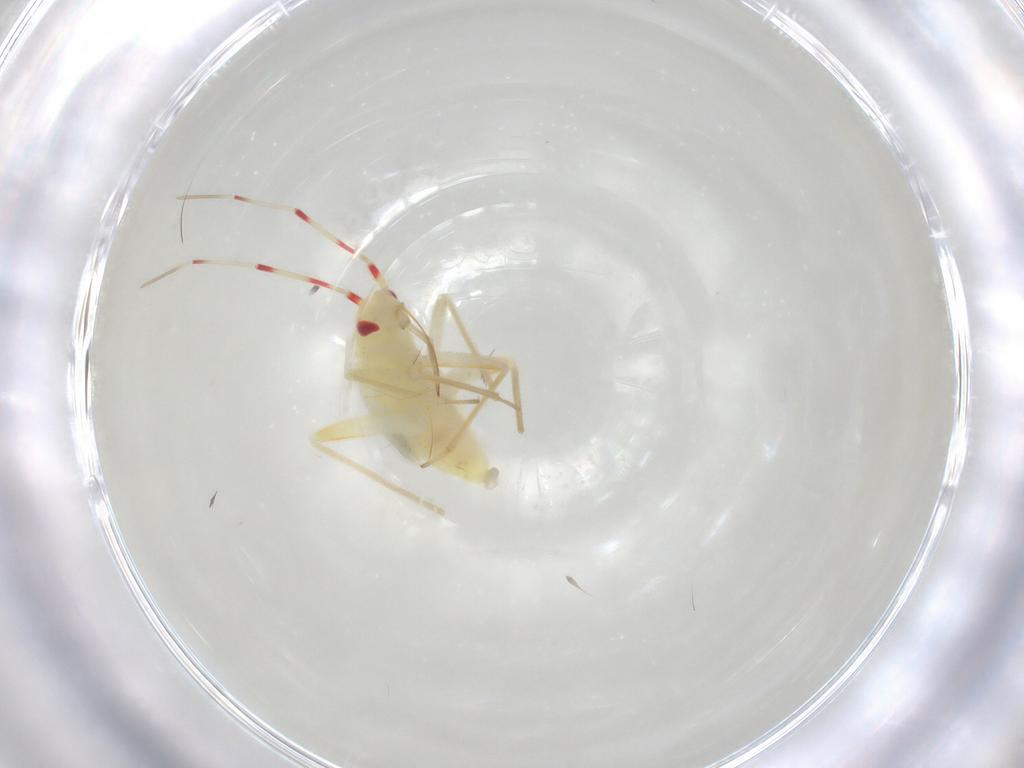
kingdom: Animalia
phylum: Arthropoda
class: Insecta
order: Hemiptera
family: Miridae
